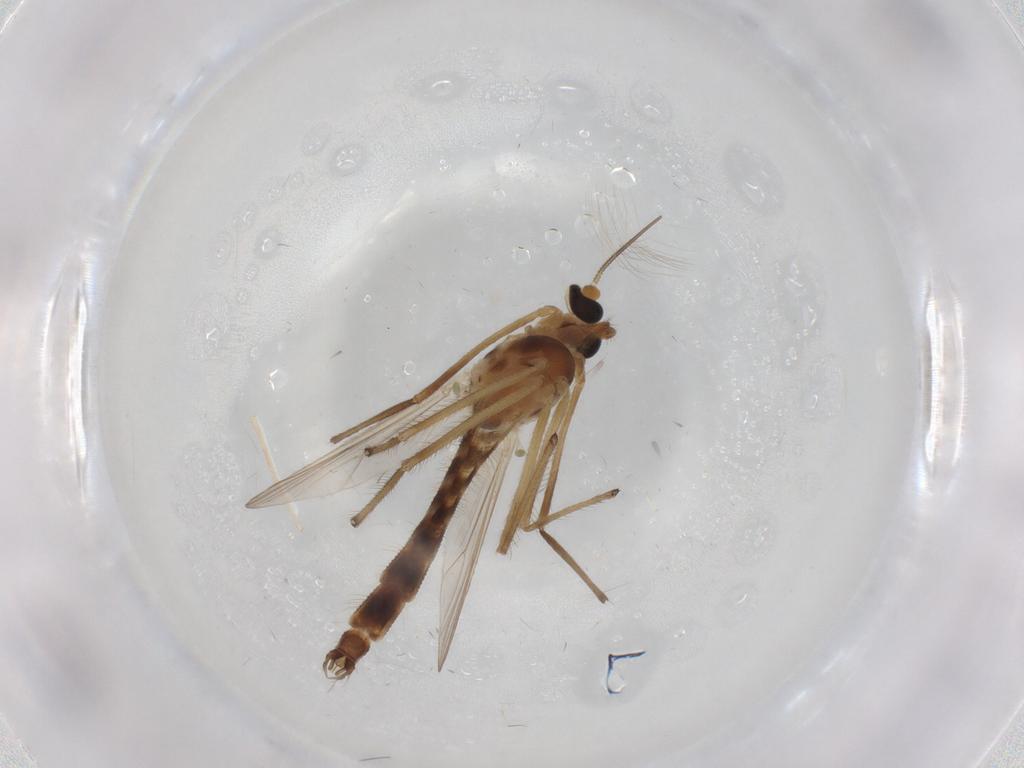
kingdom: Animalia
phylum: Arthropoda
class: Insecta
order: Diptera
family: Chironomidae
